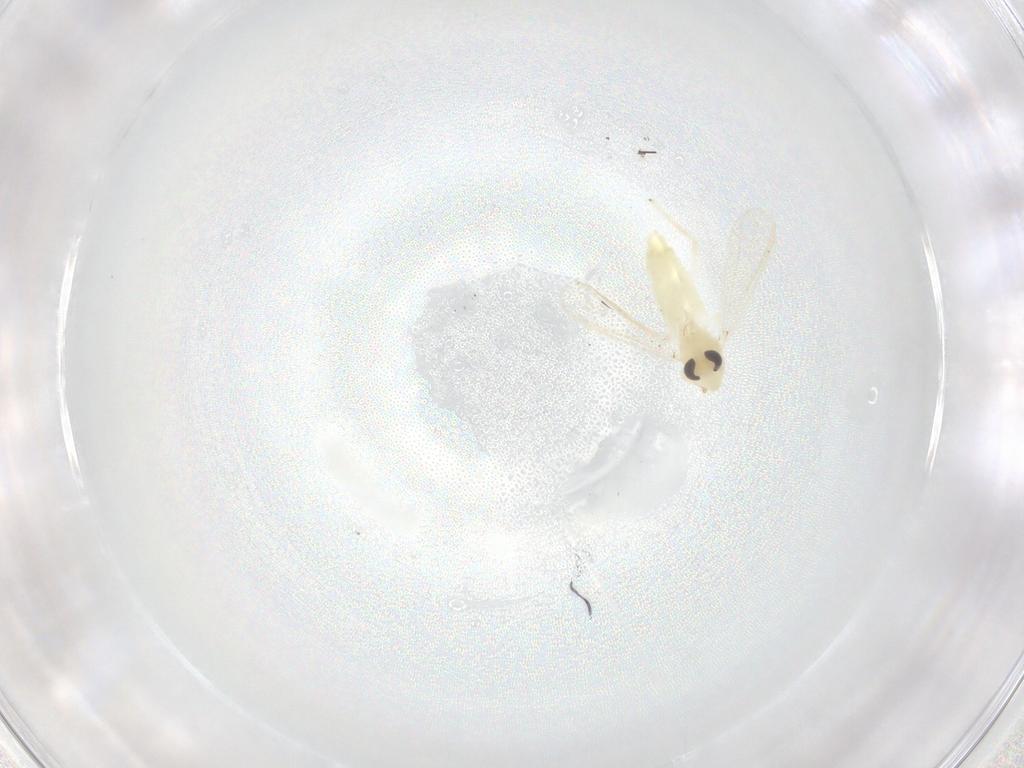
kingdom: Animalia
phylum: Arthropoda
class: Insecta
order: Diptera
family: Chironomidae
